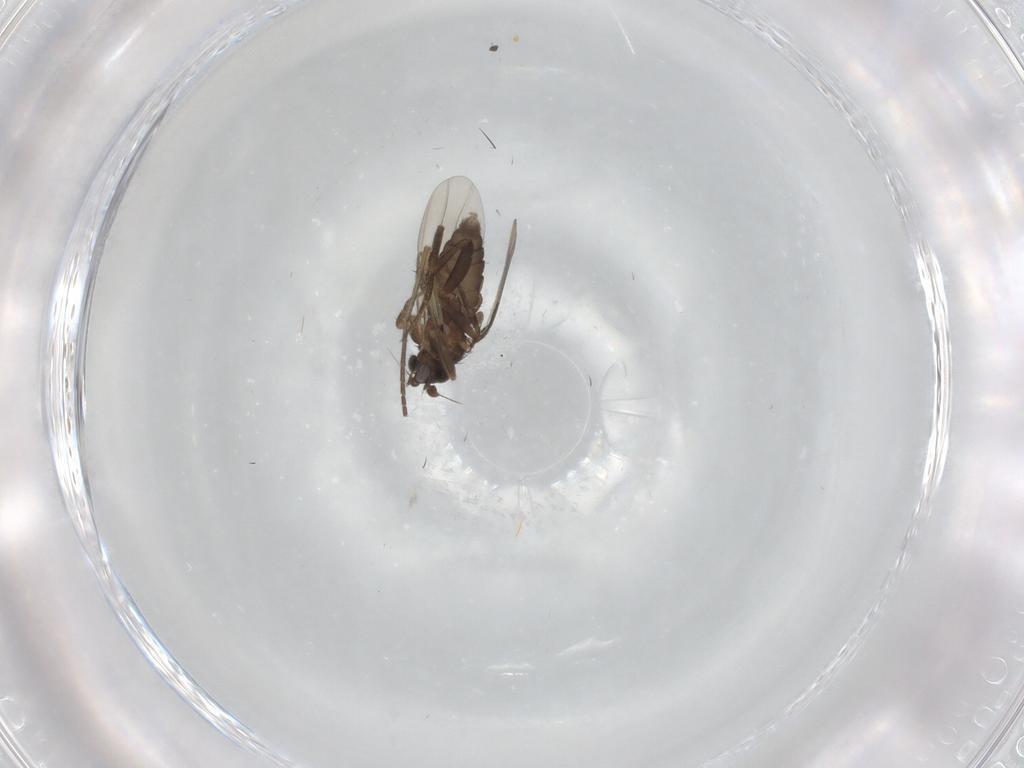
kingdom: Animalia
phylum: Arthropoda
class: Insecta
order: Diptera
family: Phoridae
